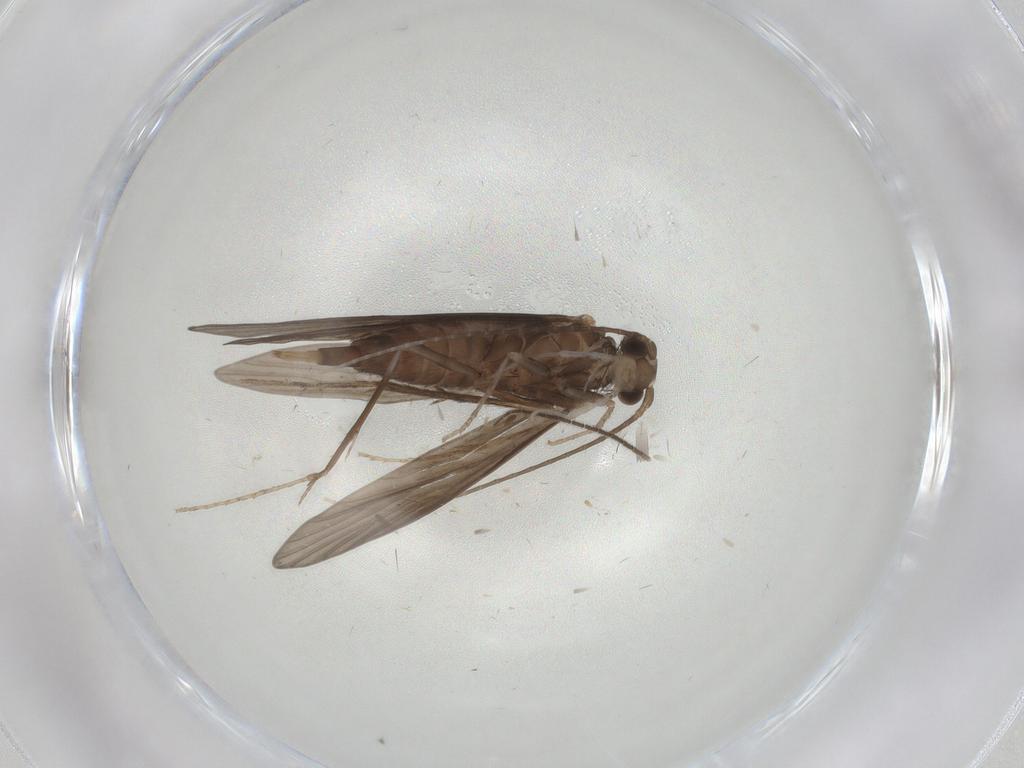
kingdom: Animalia
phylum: Arthropoda
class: Insecta
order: Trichoptera
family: Xiphocentronidae
